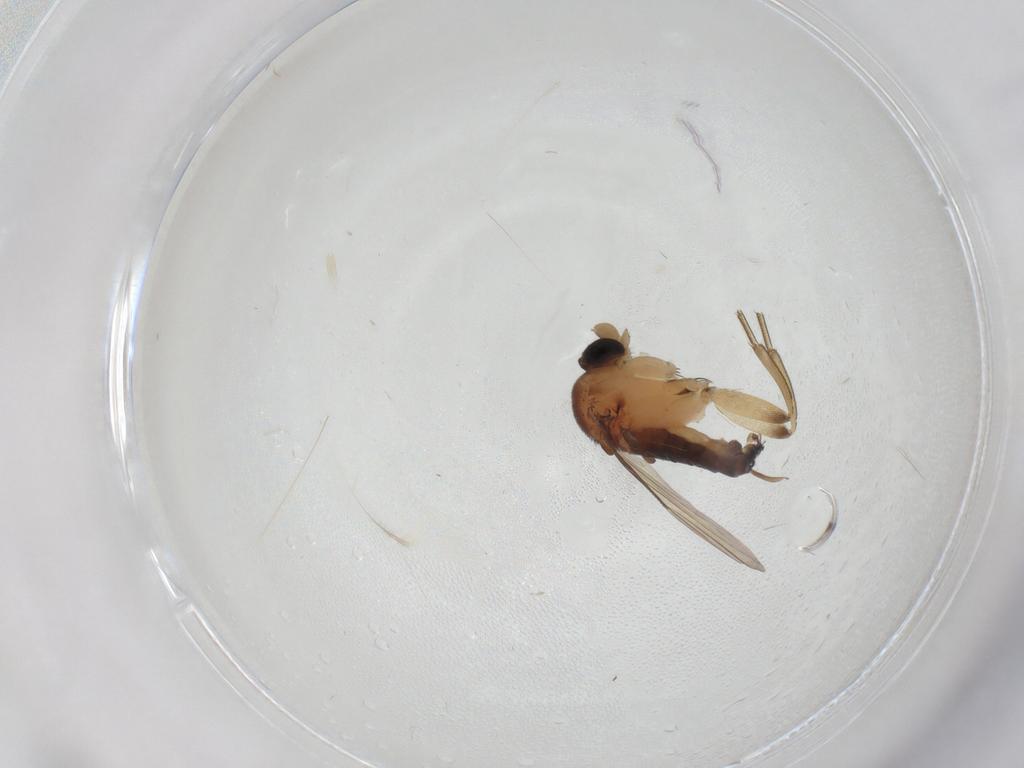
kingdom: Animalia
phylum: Arthropoda
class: Insecta
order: Diptera
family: Phoridae
